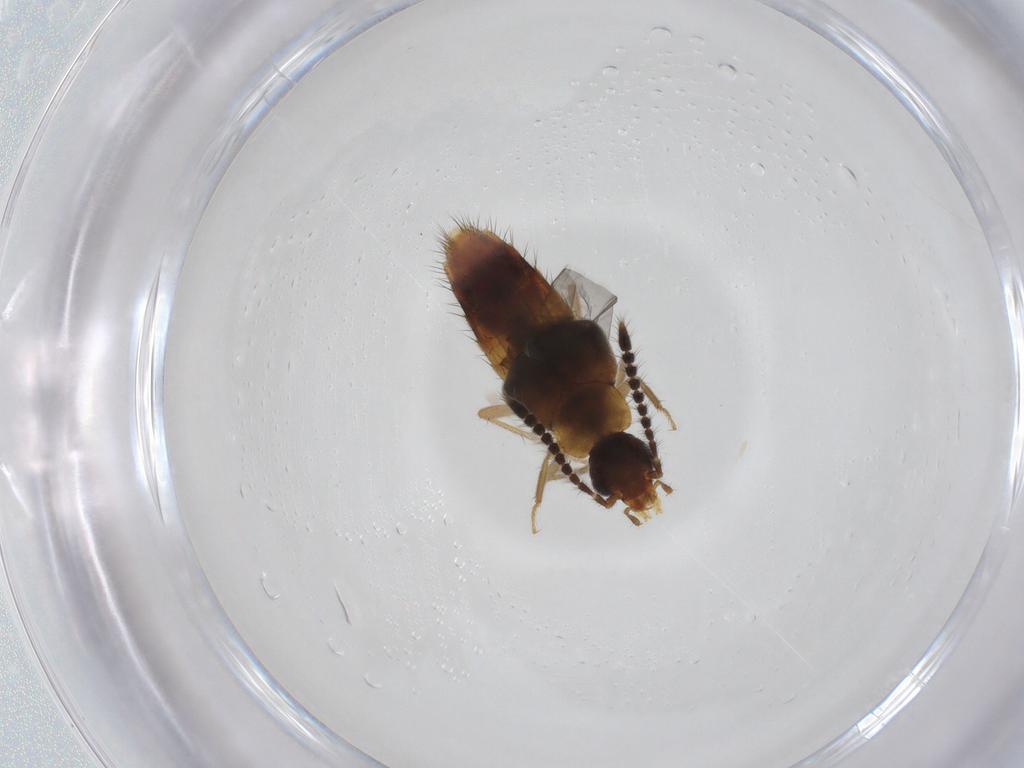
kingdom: Animalia
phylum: Arthropoda
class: Insecta
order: Coleoptera
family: Staphylinidae
